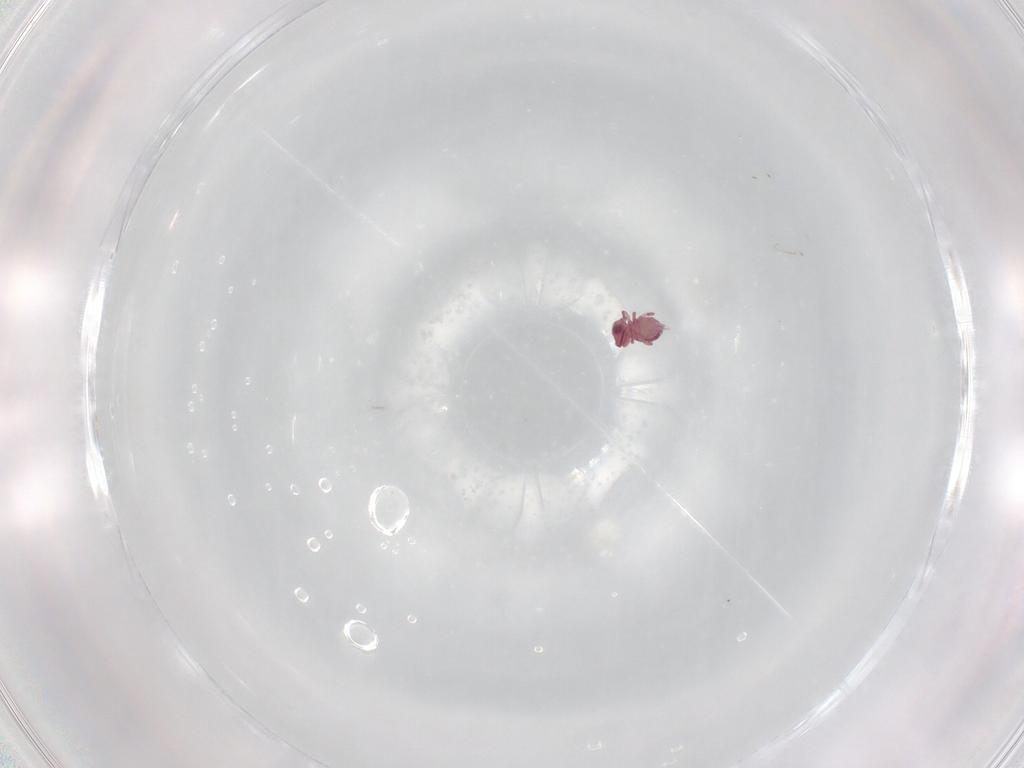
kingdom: Animalia
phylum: Arthropoda
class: Collembola
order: Symphypleona
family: Sminthurididae
